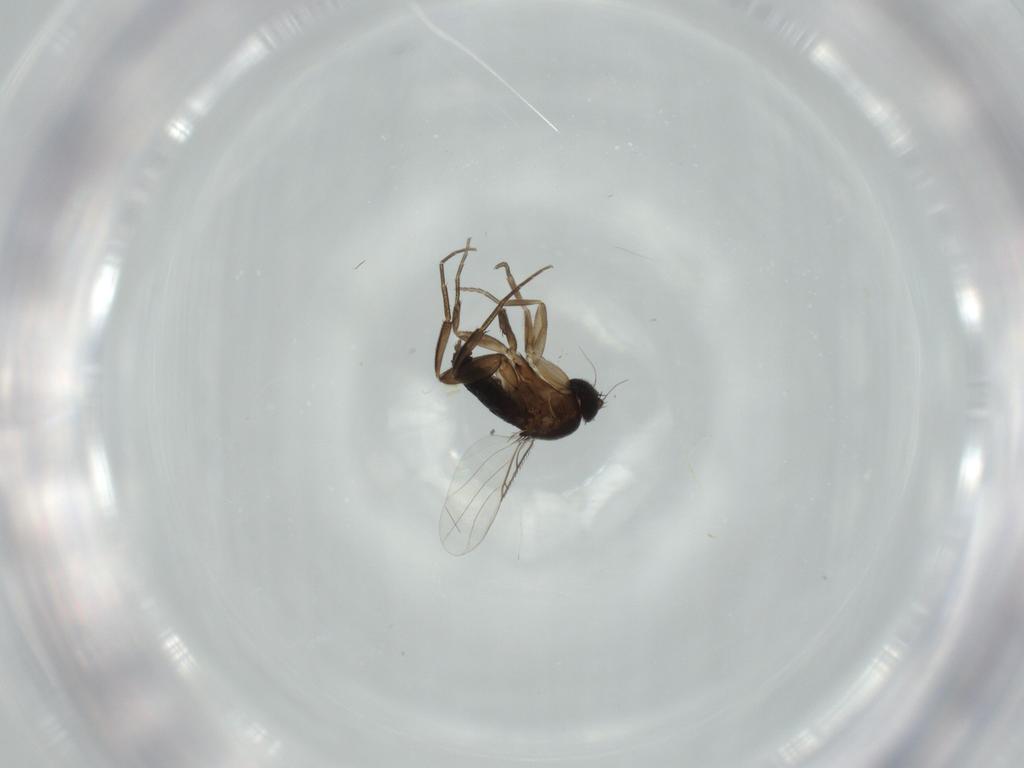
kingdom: Animalia
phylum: Arthropoda
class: Insecta
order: Diptera
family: Phoridae
